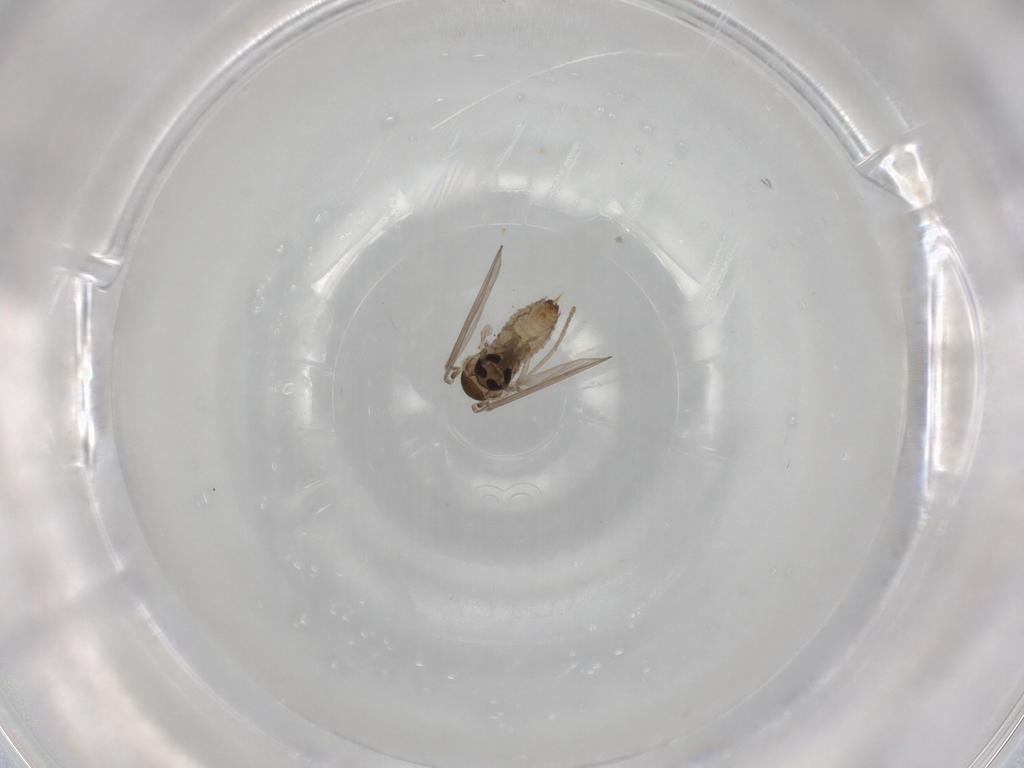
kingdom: Animalia
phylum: Arthropoda
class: Insecta
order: Diptera
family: Psychodidae
